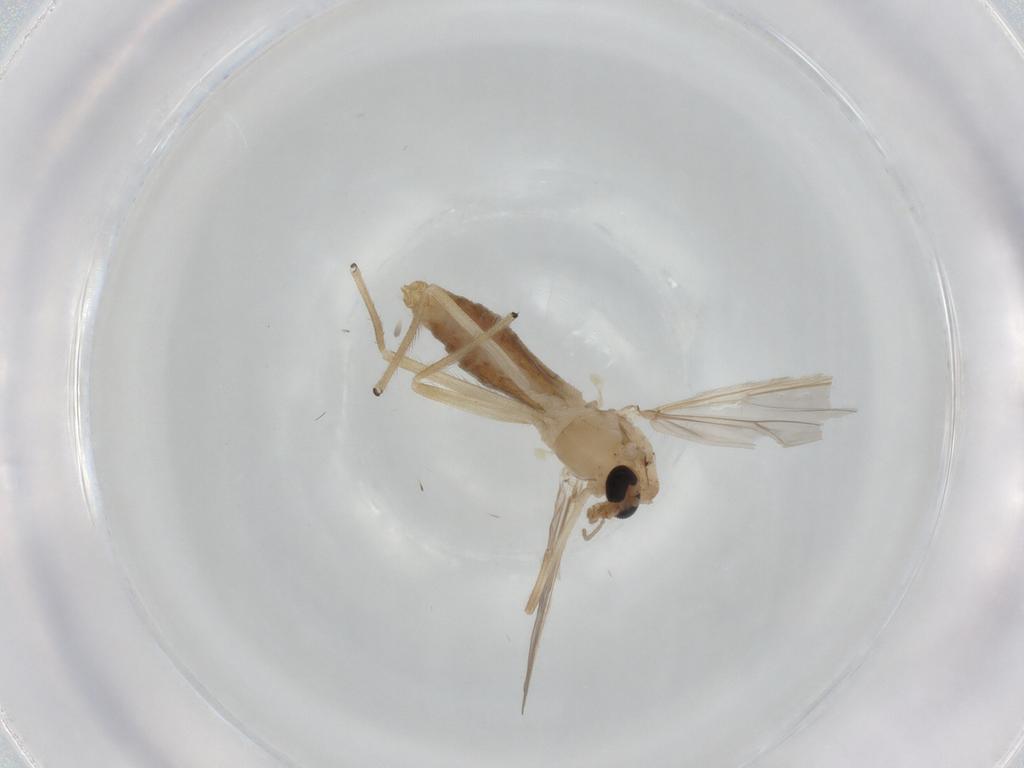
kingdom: Animalia
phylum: Arthropoda
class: Insecta
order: Diptera
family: Chironomidae
